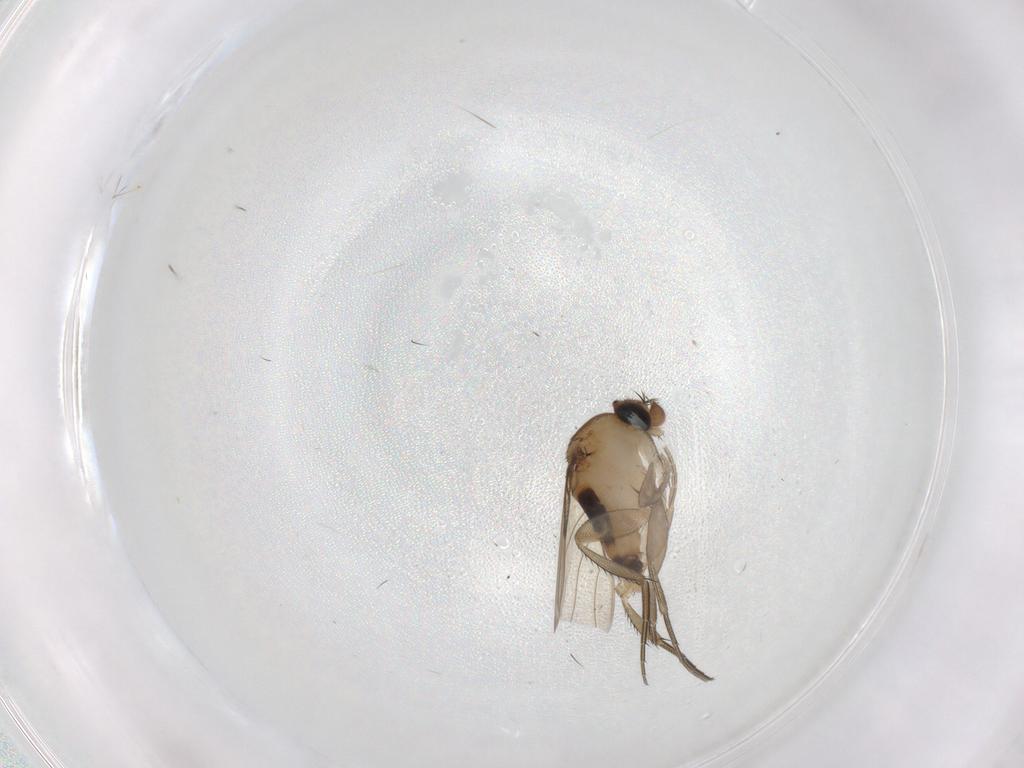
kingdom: Animalia
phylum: Arthropoda
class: Insecta
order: Diptera
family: Phoridae
